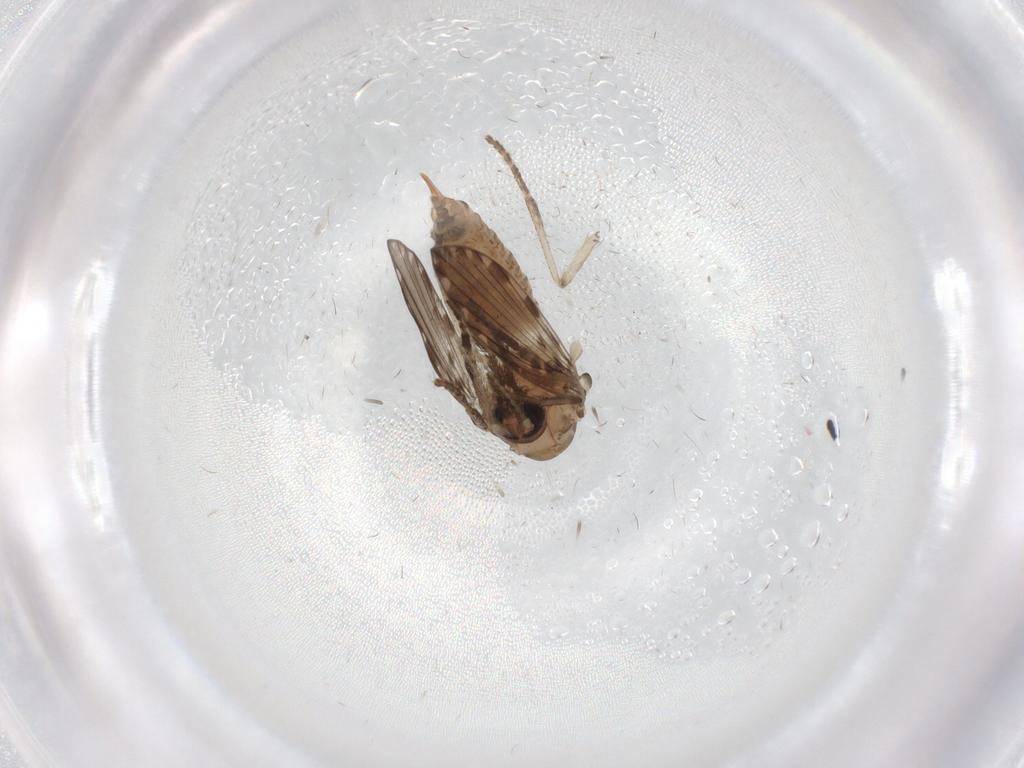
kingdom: Animalia
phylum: Arthropoda
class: Insecta
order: Diptera
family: Psychodidae
